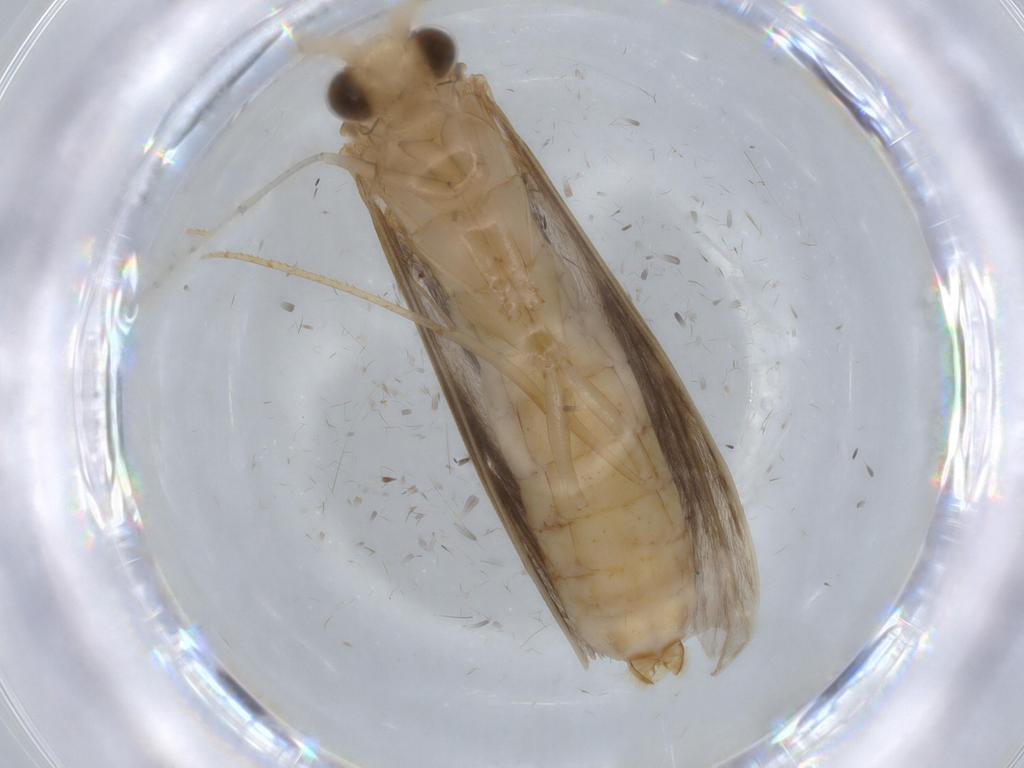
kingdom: Animalia
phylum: Arthropoda
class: Insecta
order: Trichoptera
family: Leptoceridae
